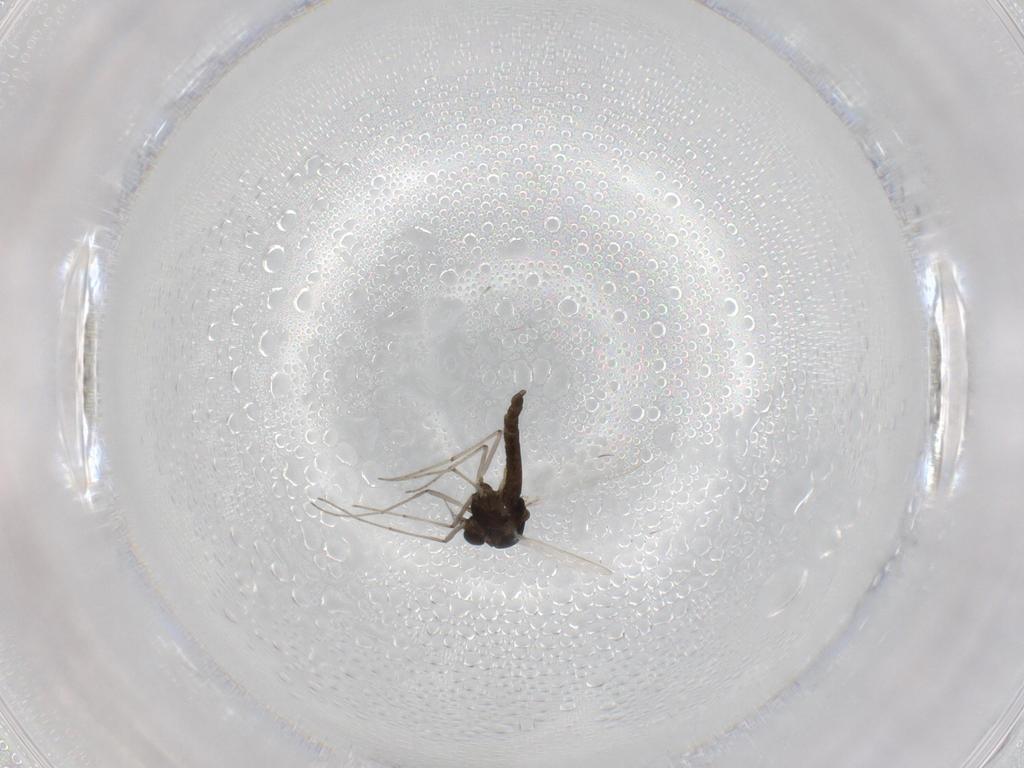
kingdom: Animalia
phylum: Arthropoda
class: Insecta
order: Diptera
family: Chironomidae
